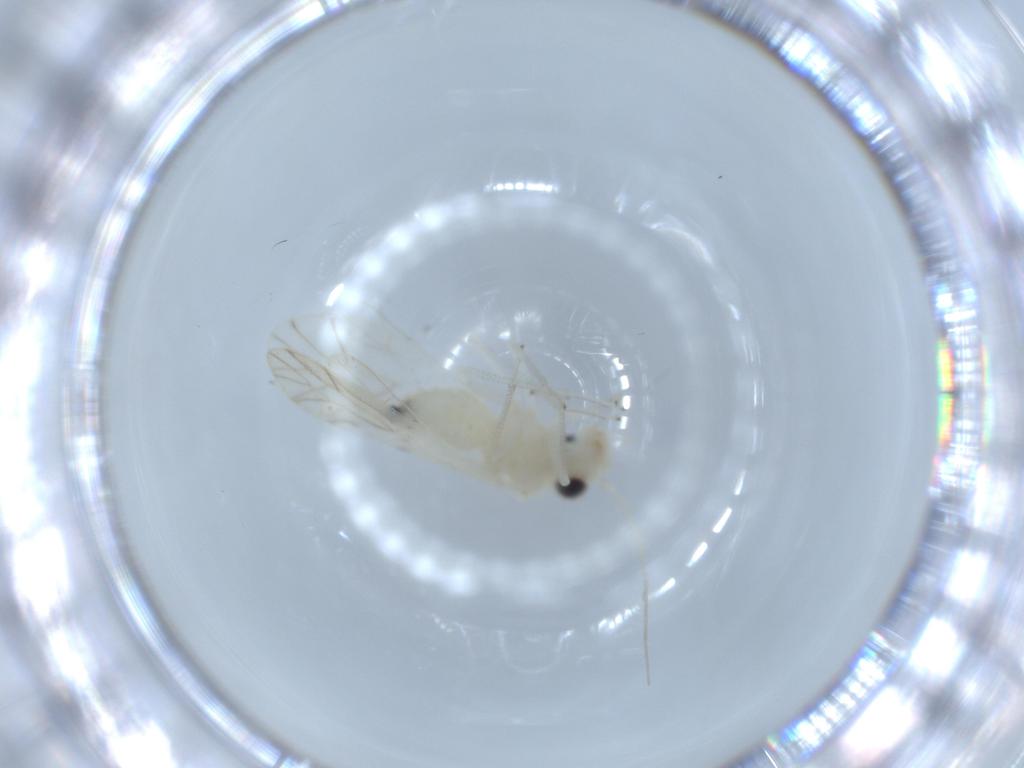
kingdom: Animalia
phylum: Arthropoda
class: Insecta
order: Psocodea
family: Caeciliusidae
